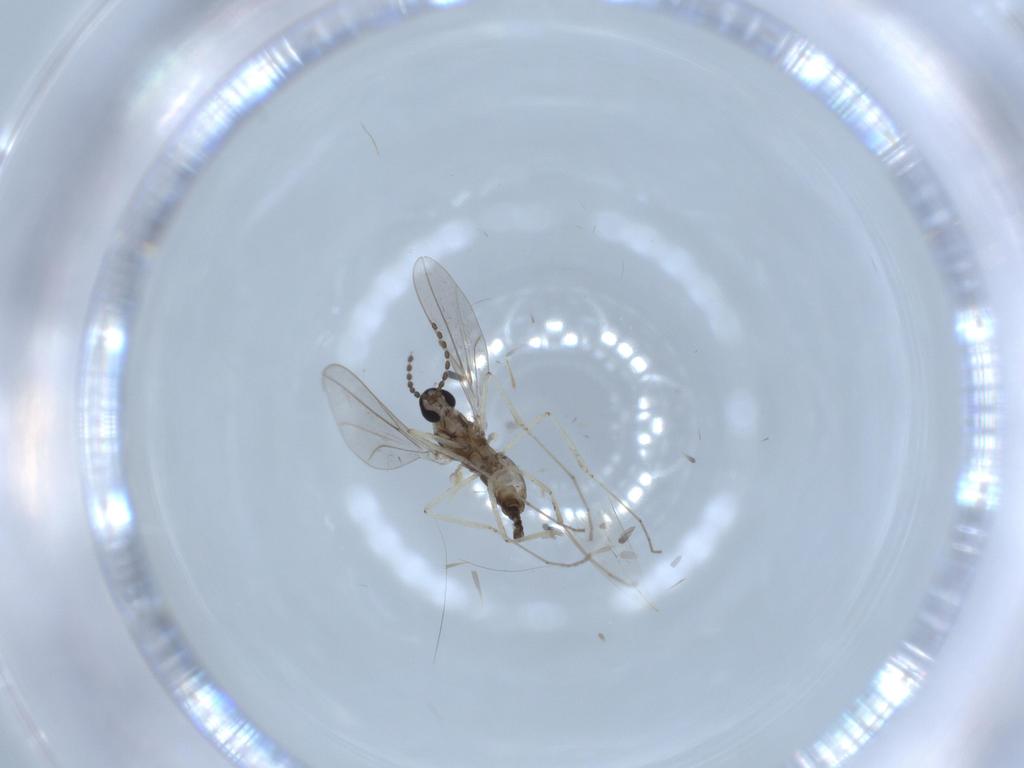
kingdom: Animalia
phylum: Arthropoda
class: Insecta
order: Diptera
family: Cecidomyiidae
